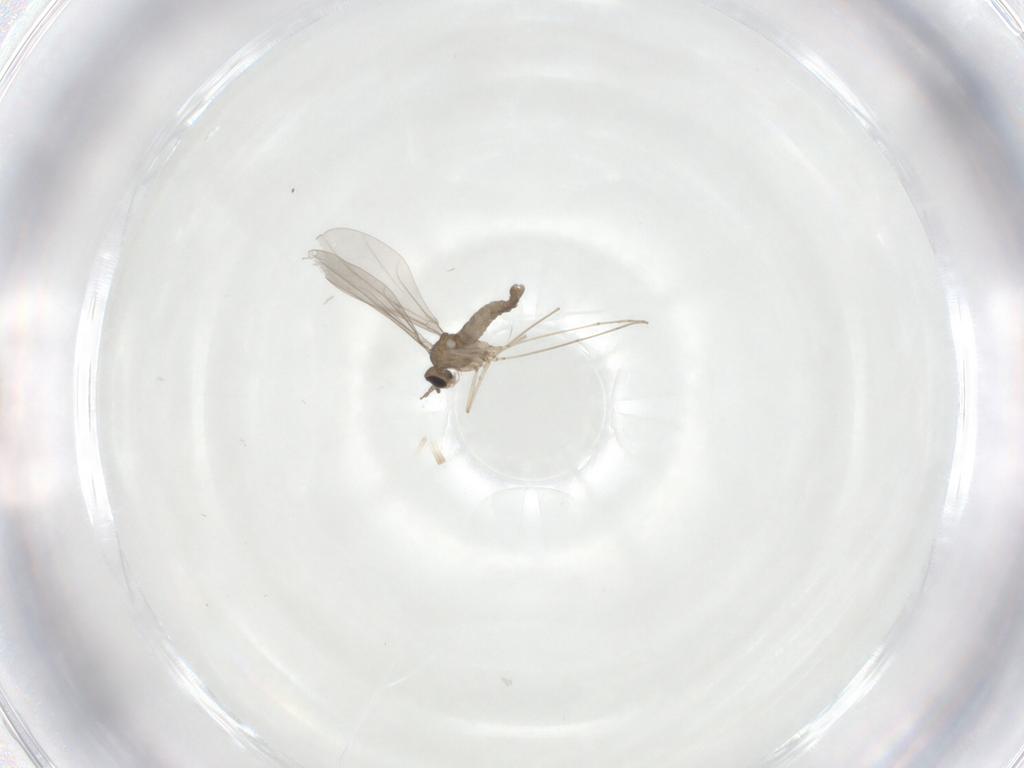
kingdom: Animalia
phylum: Arthropoda
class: Insecta
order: Diptera
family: Cecidomyiidae
